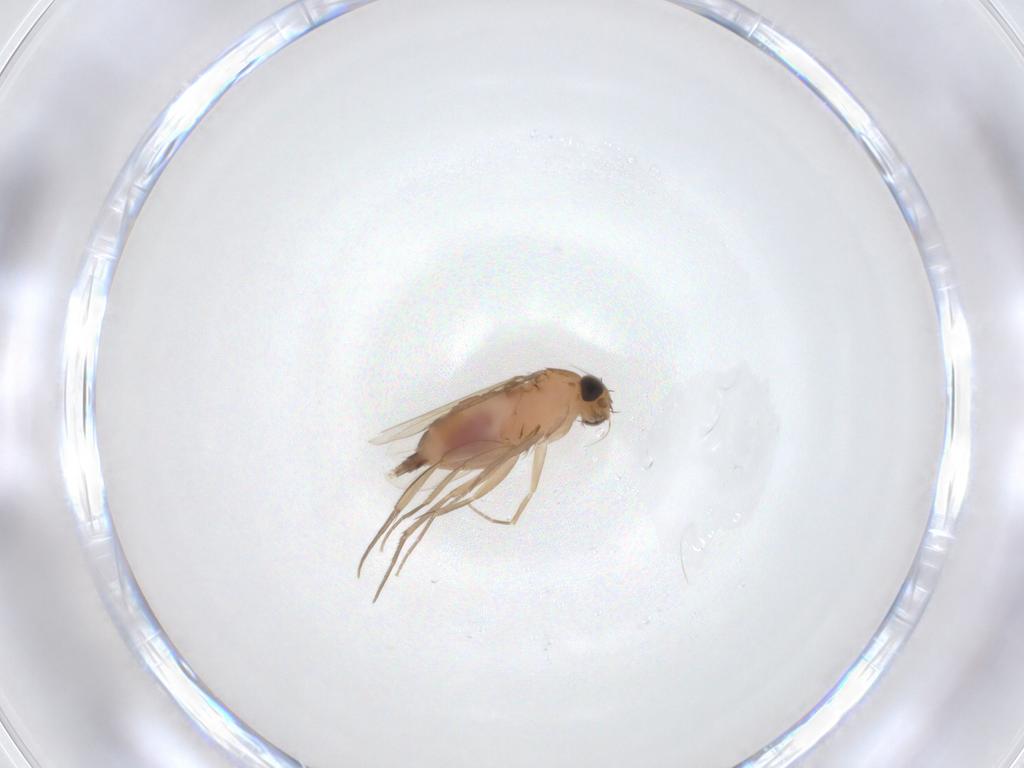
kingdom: Animalia
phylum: Arthropoda
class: Insecta
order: Diptera
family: Phoridae
